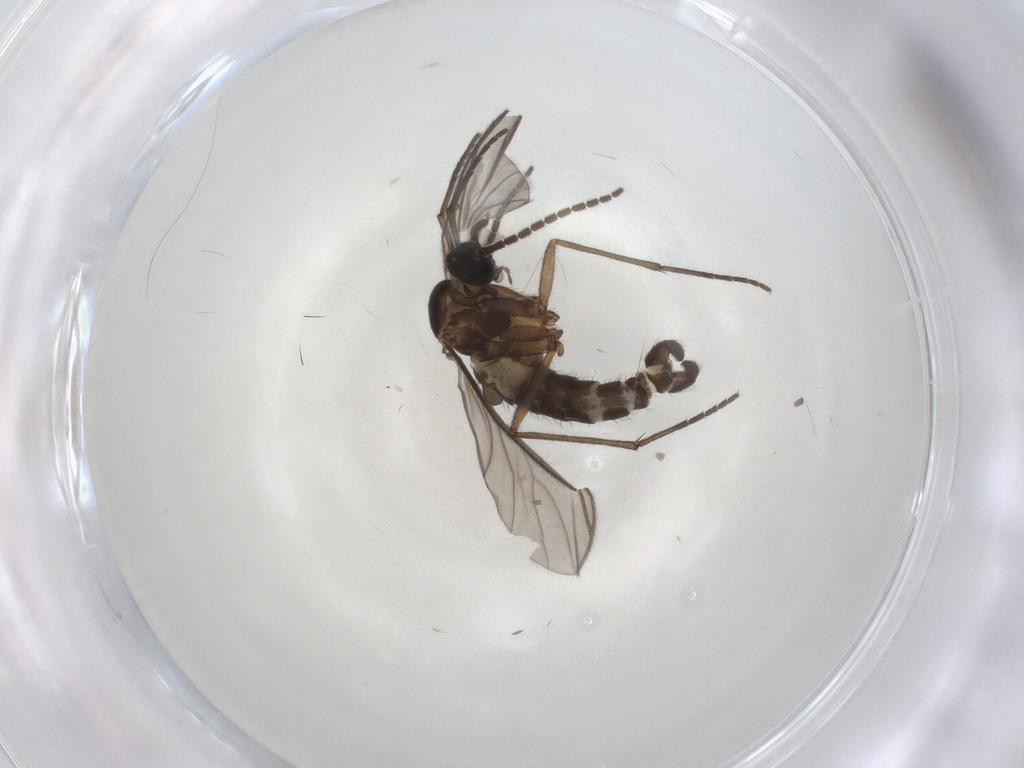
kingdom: Animalia
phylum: Arthropoda
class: Insecta
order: Diptera
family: Sciaridae
